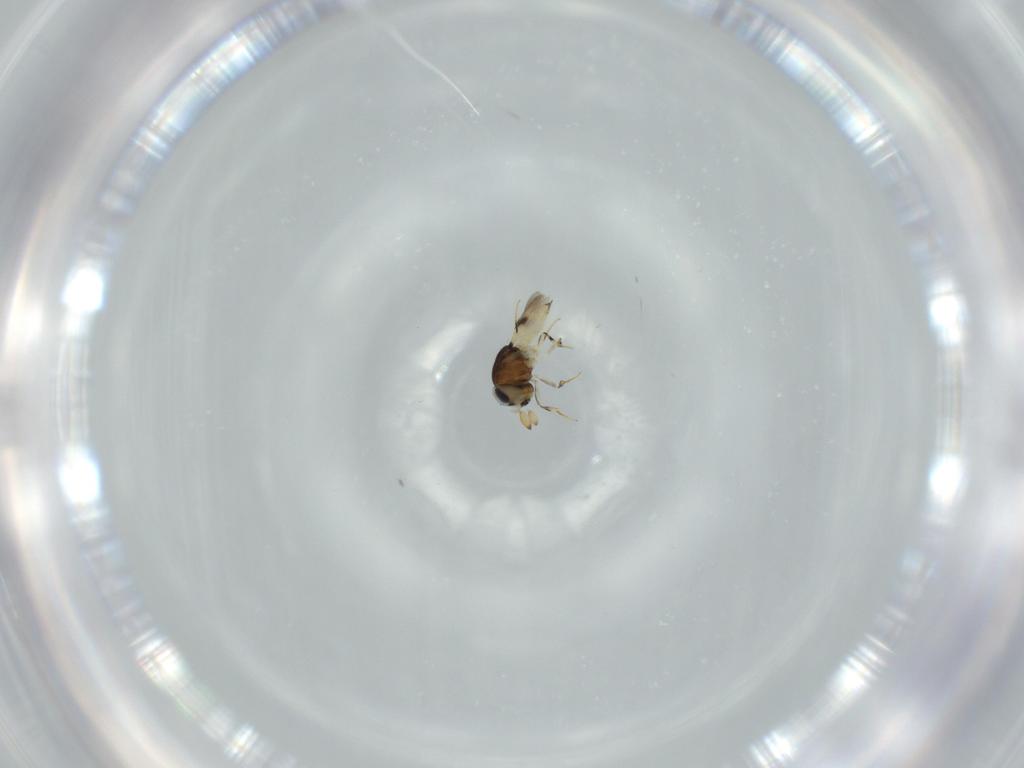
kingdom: Animalia
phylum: Arthropoda
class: Insecta
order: Hymenoptera
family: Scelionidae
